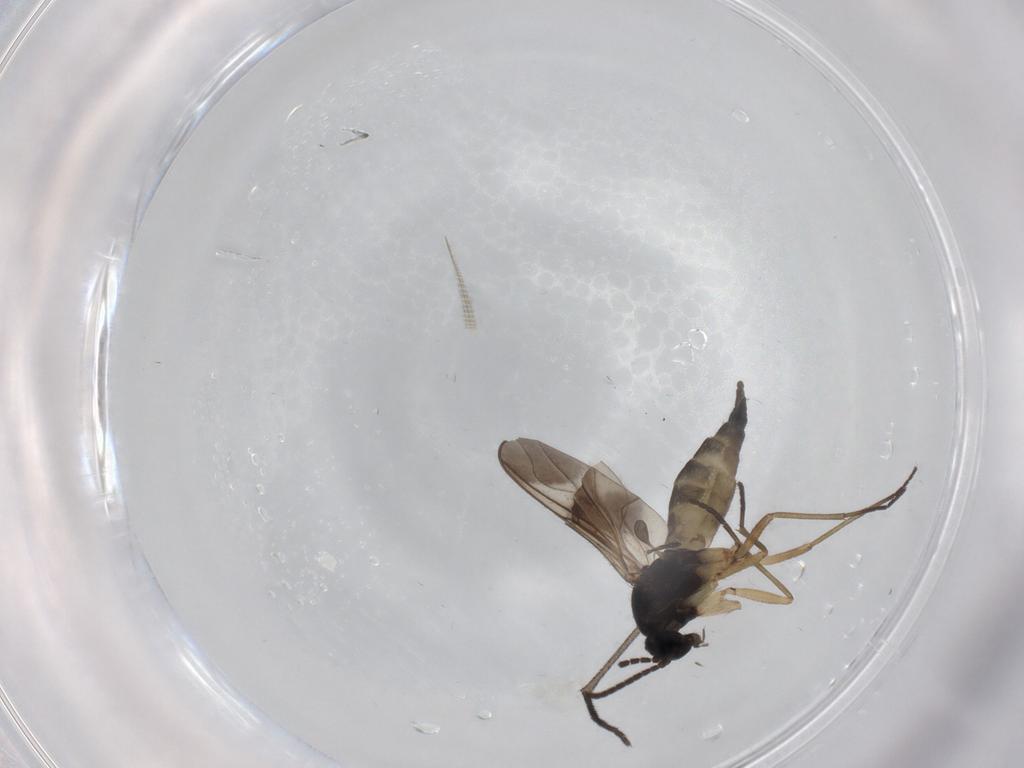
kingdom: Animalia
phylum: Arthropoda
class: Insecta
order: Diptera
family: Sciaridae
